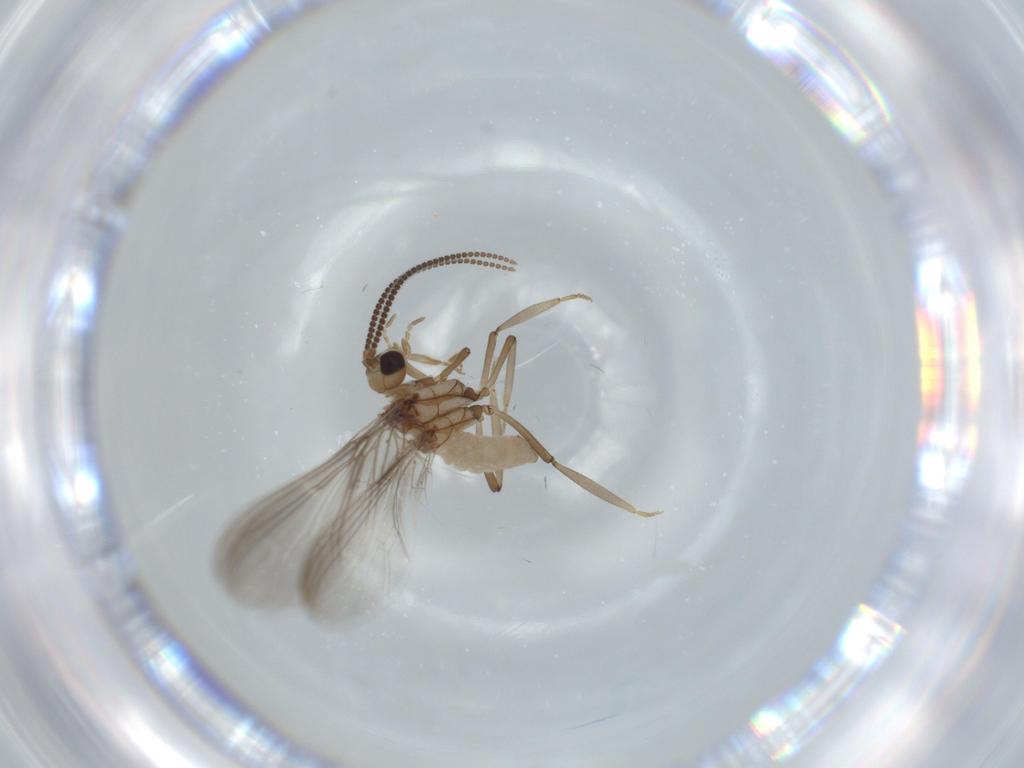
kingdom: Animalia
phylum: Arthropoda
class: Insecta
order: Neuroptera
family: Coniopterygidae
